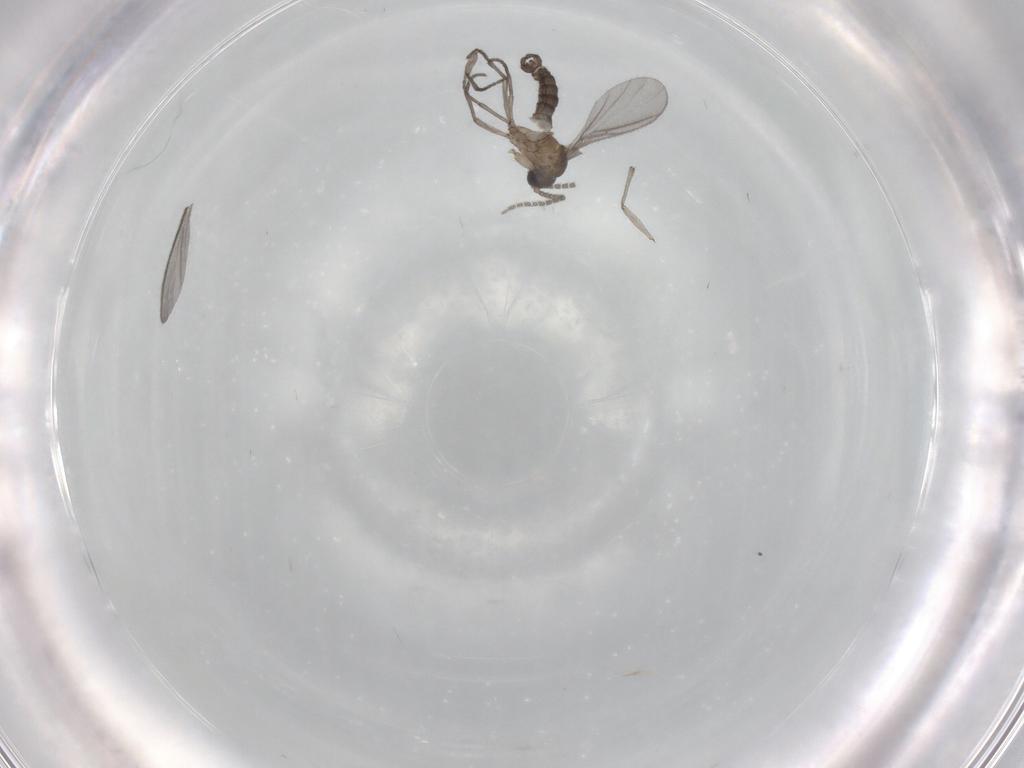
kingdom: Animalia
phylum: Arthropoda
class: Insecta
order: Diptera
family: Sciaridae
